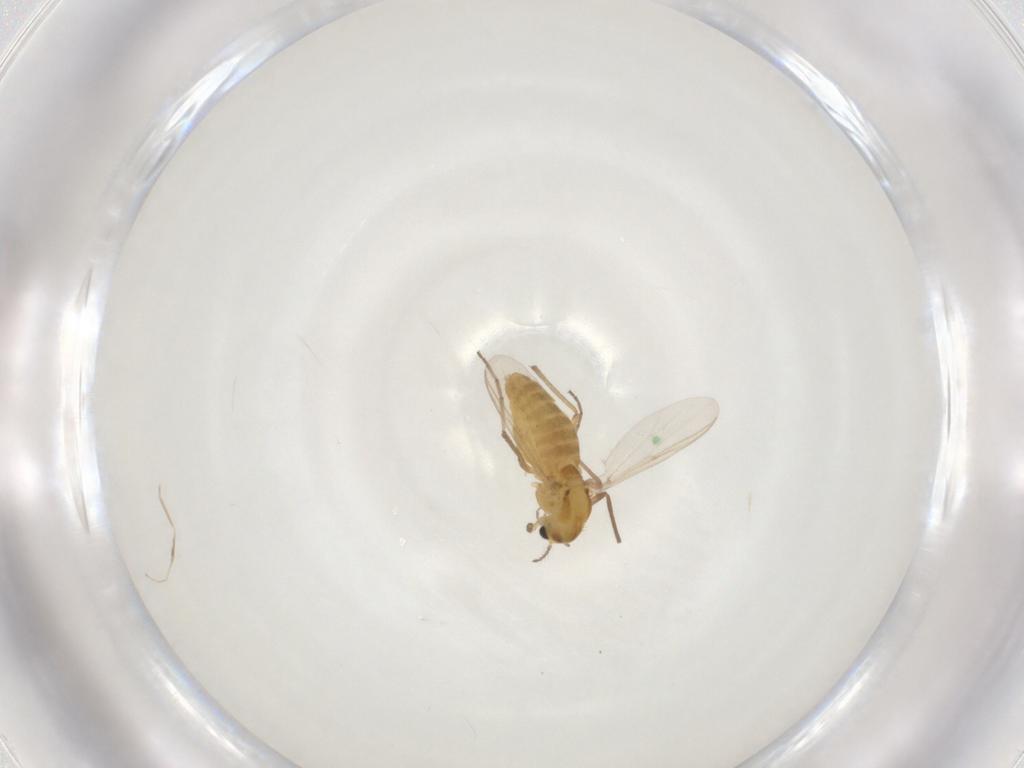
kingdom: Animalia
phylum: Arthropoda
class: Insecta
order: Diptera
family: Chironomidae
